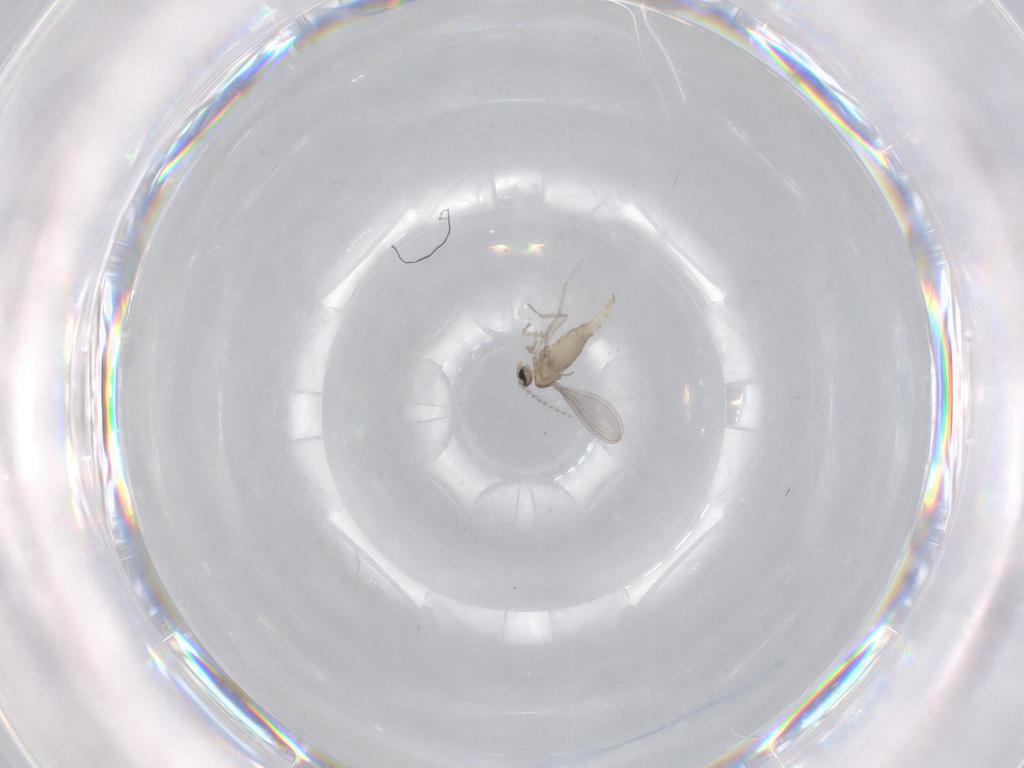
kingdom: Animalia
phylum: Arthropoda
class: Insecta
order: Diptera
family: Cecidomyiidae
